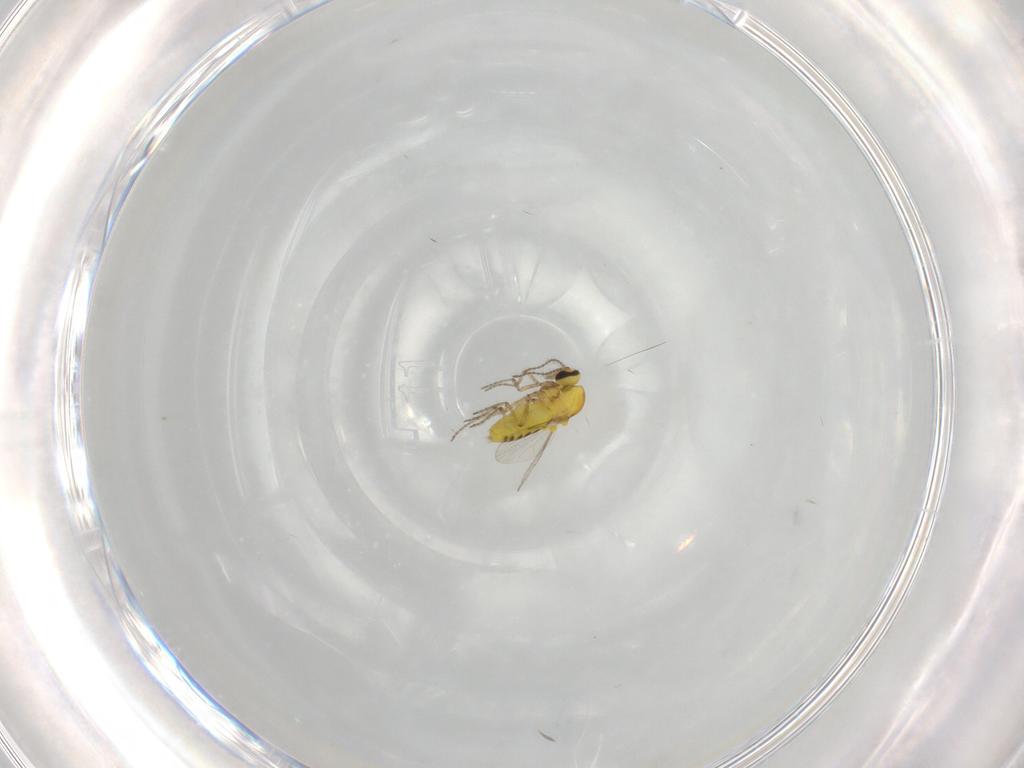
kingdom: Animalia
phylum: Arthropoda
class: Insecta
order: Diptera
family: Ceratopogonidae
